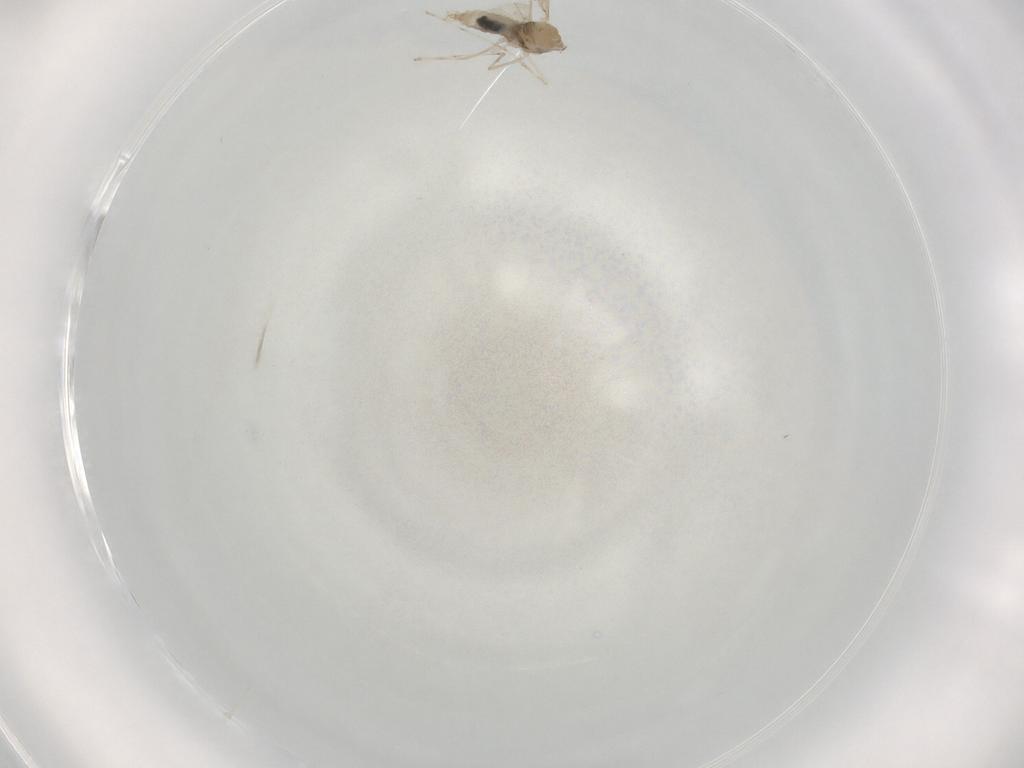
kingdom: Animalia
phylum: Arthropoda
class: Insecta
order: Diptera
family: Cecidomyiidae
